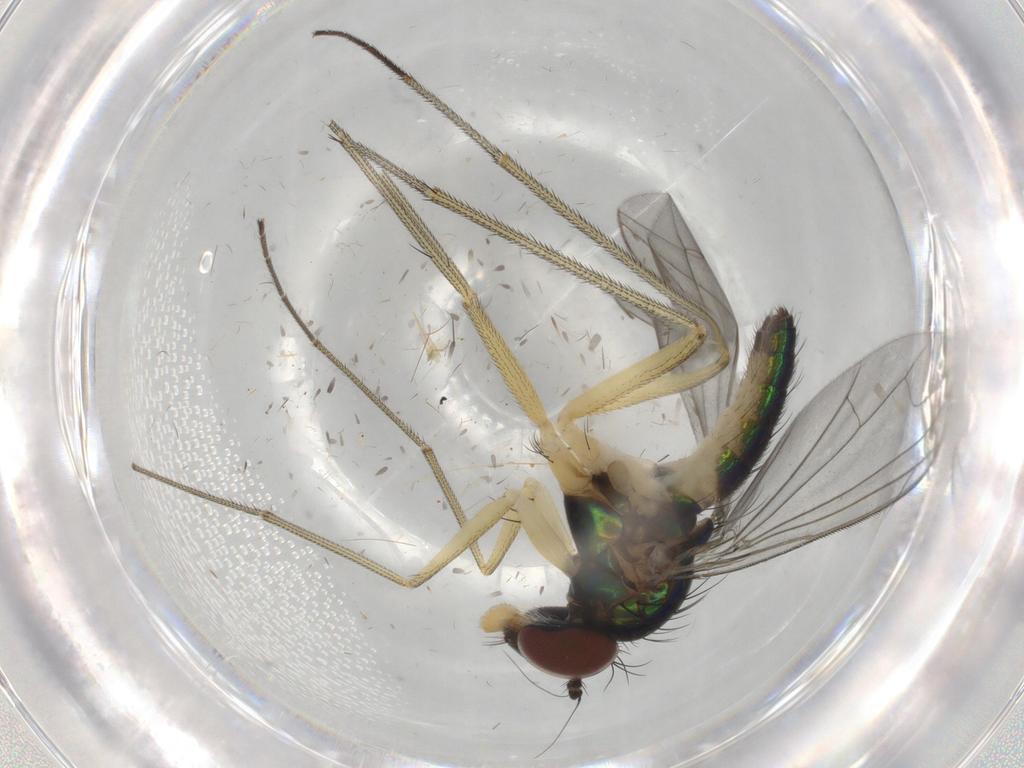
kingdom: Animalia
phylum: Arthropoda
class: Insecta
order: Diptera
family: Dolichopodidae
